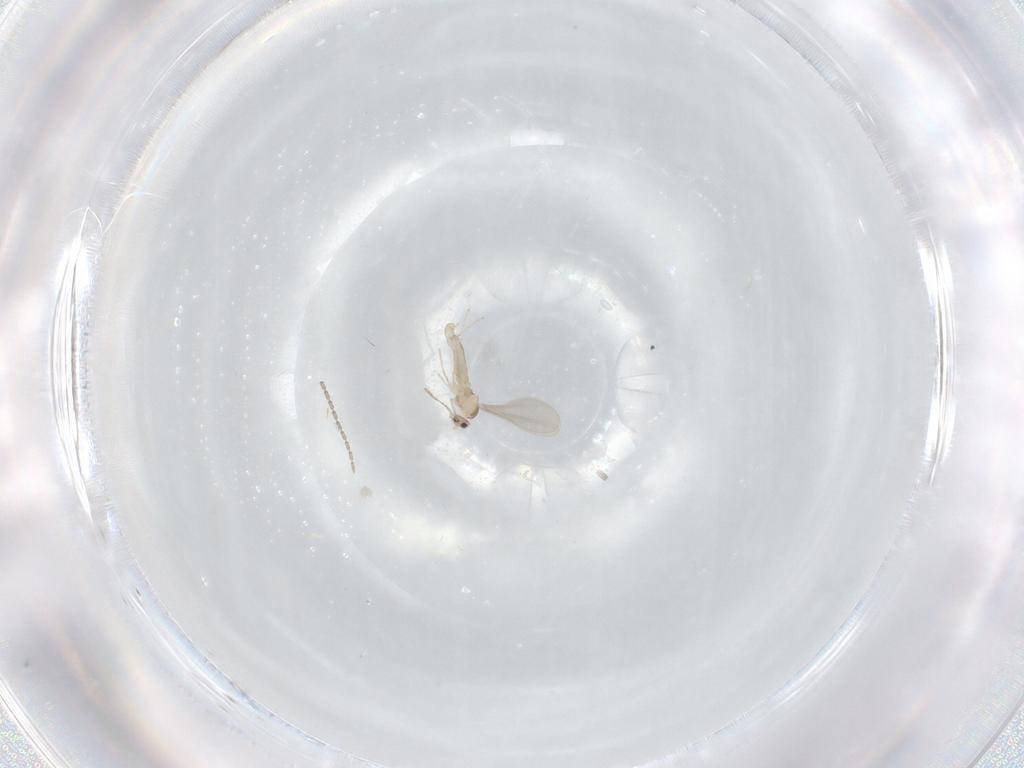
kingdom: Animalia
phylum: Arthropoda
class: Insecta
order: Diptera
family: Cecidomyiidae
